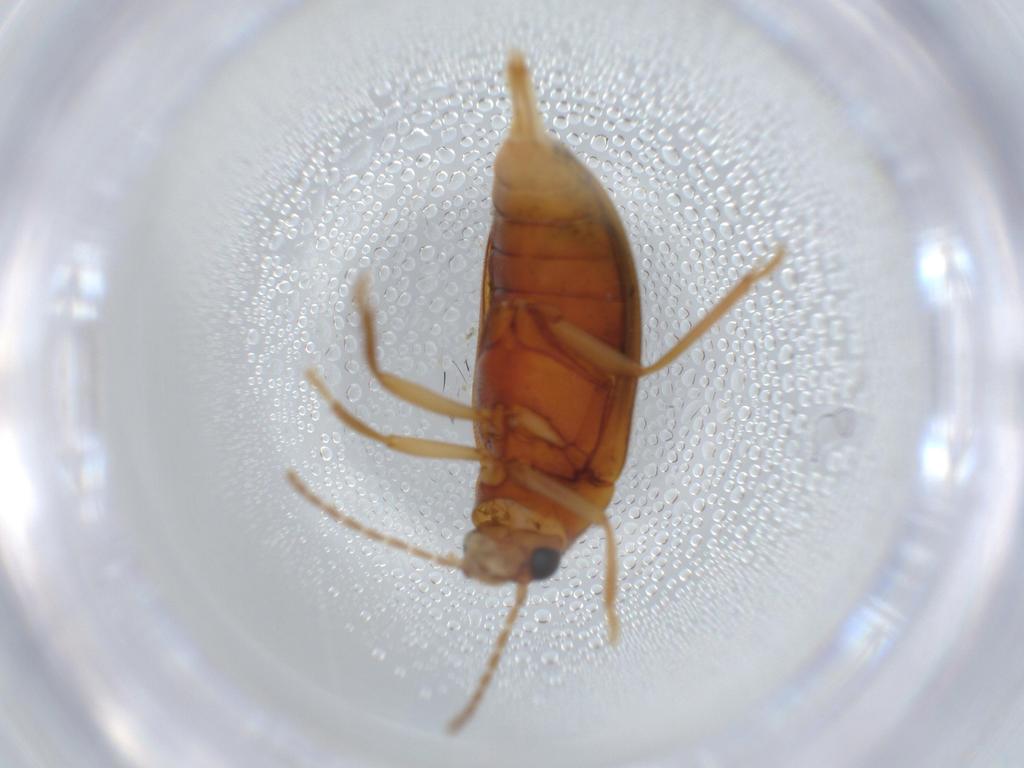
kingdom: Animalia
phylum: Arthropoda
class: Insecta
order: Coleoptera
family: Ptilodactylidae
